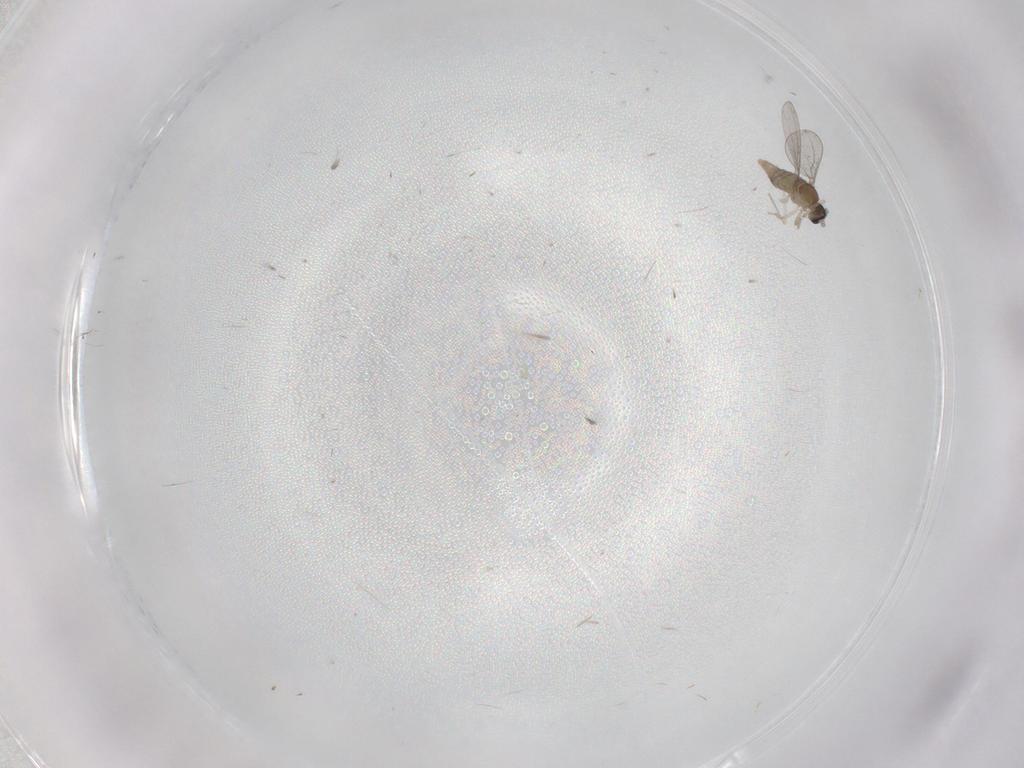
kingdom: Animalia
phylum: Arthropoda
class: Insecta
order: Diptera
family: Cecidomyiidae
